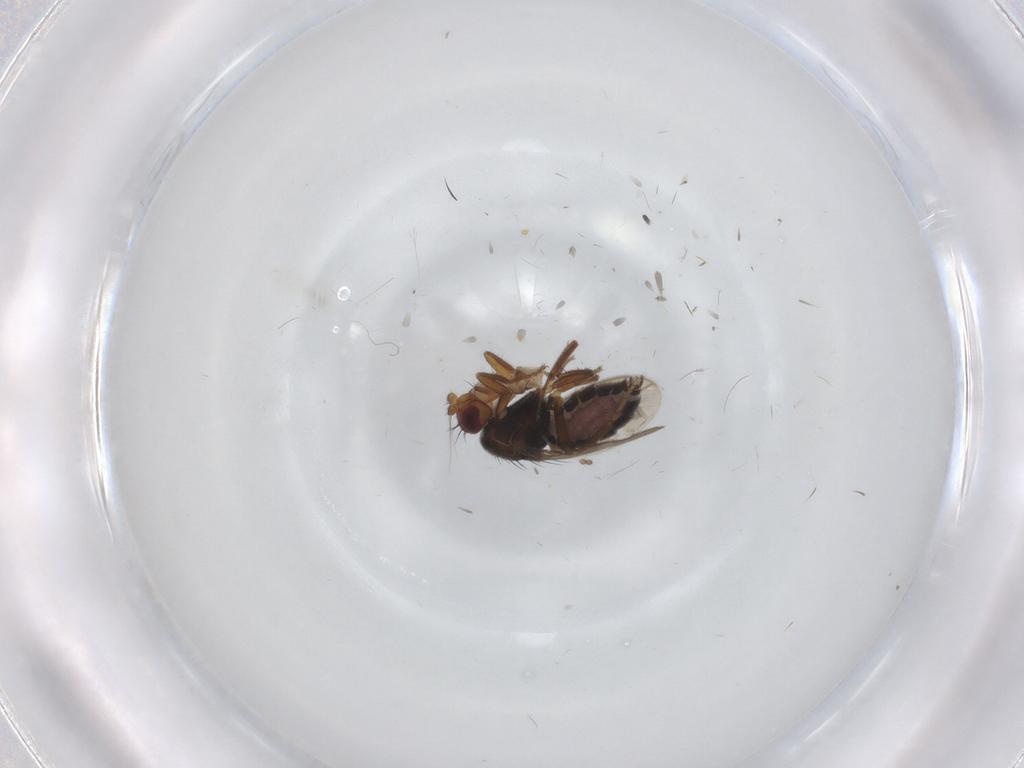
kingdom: Animalia
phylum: Arthropoda
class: Insecta
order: Diptera
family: Sphaeroceridae
